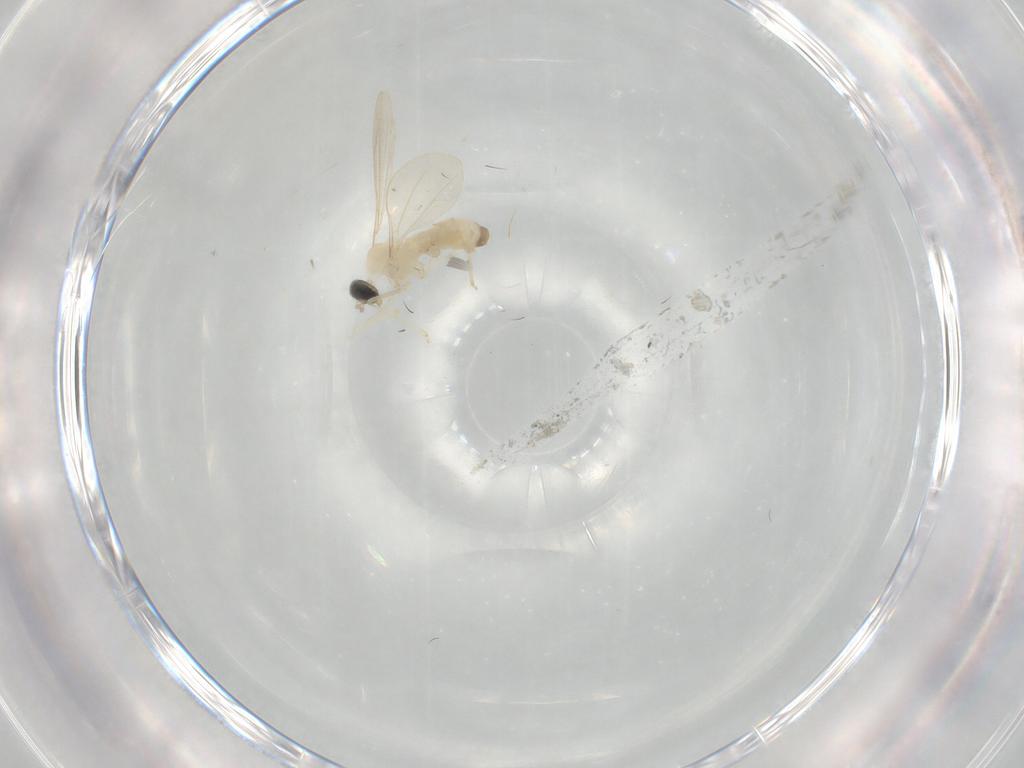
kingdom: Animalia
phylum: Arthropoda
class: Insecta
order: Diptera
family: Cecidomyiidae
